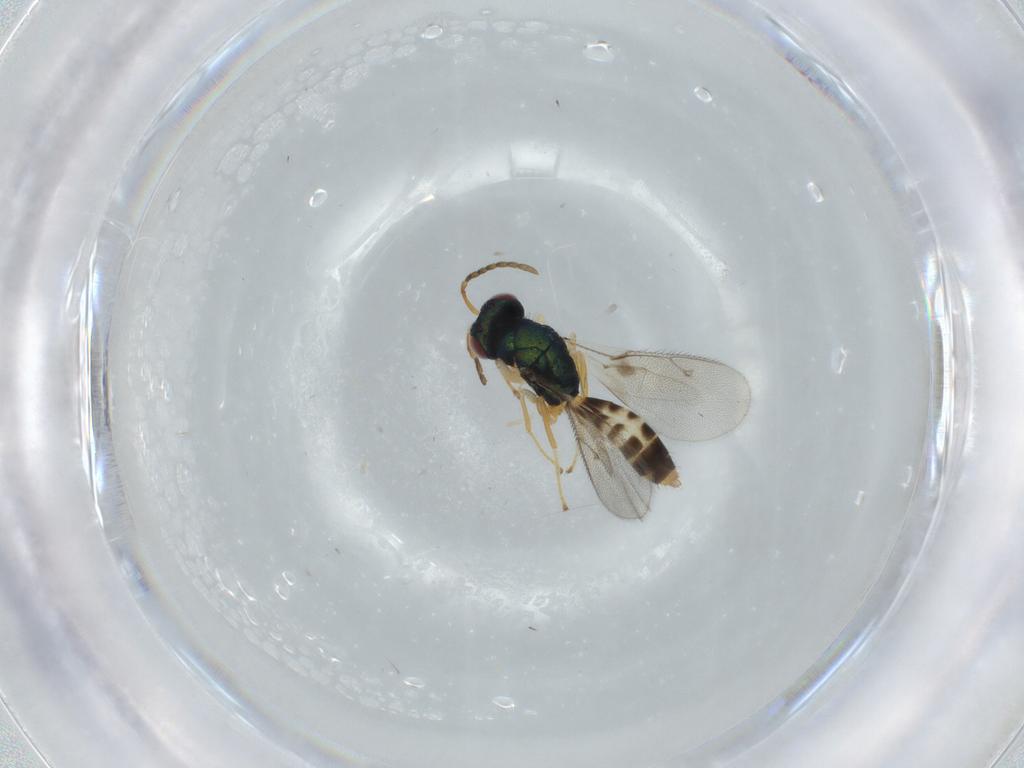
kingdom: Animalia
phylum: Arthropoda
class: Insecta
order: Hymenoptera
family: Pteromalidae
